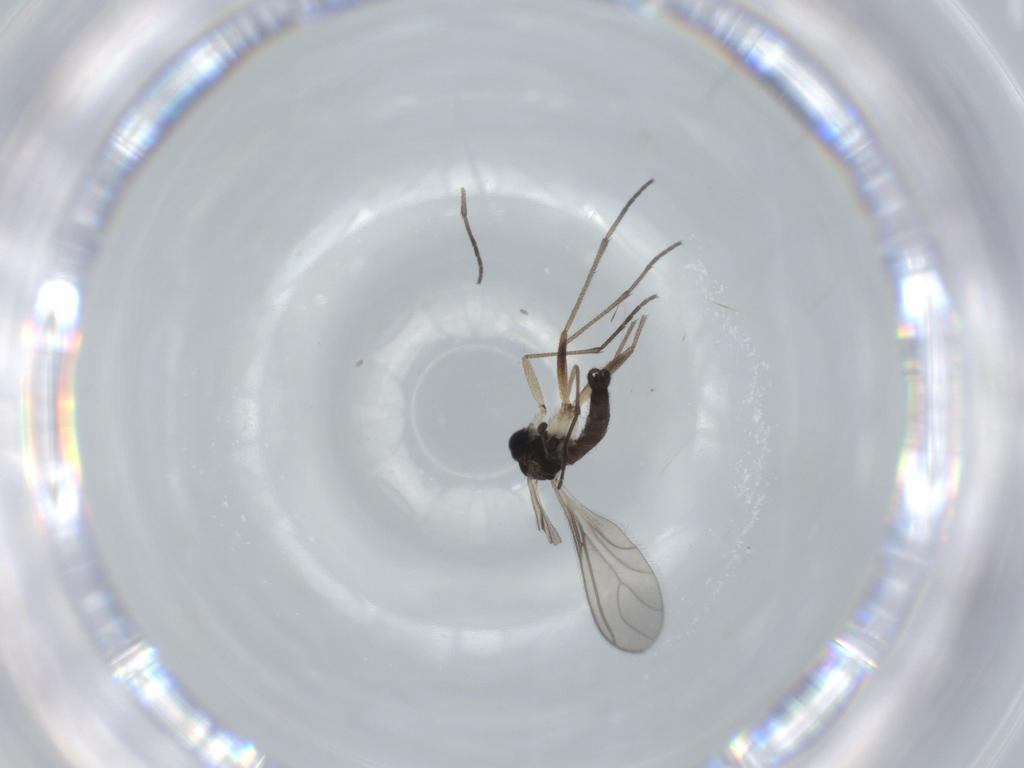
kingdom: Animalia
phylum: Arthropoda
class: Insecta
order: Diptera
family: Sciaridae
